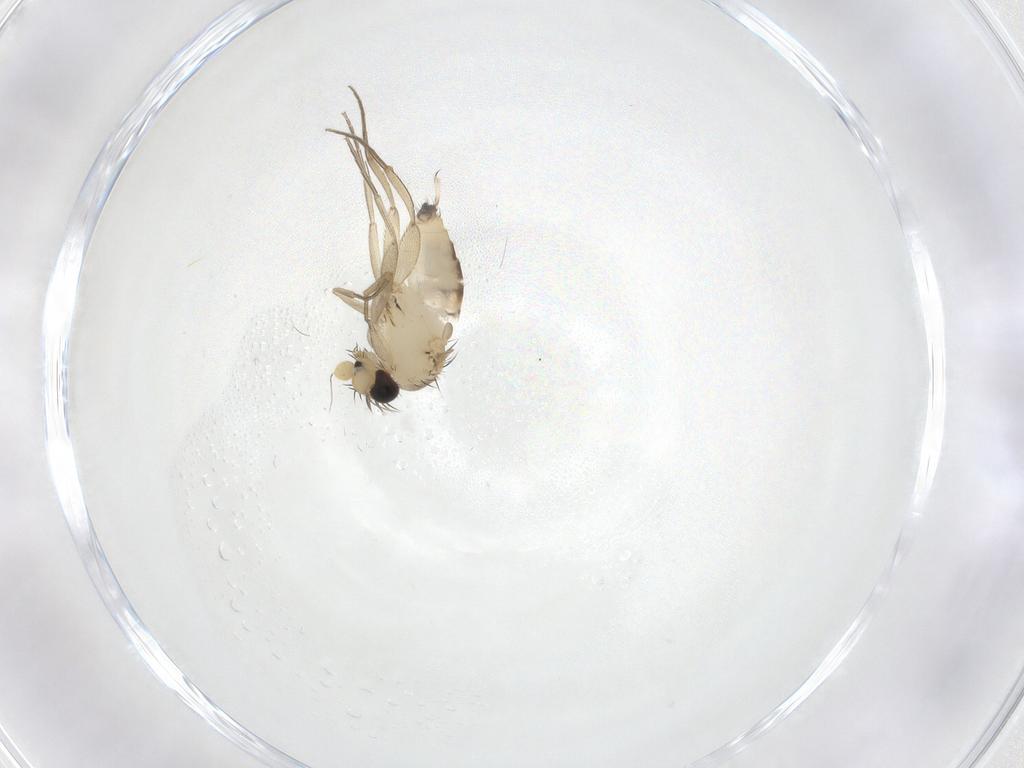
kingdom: Animalia
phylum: Arthropoda
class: Insecta
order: Diptera
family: Phoridae
